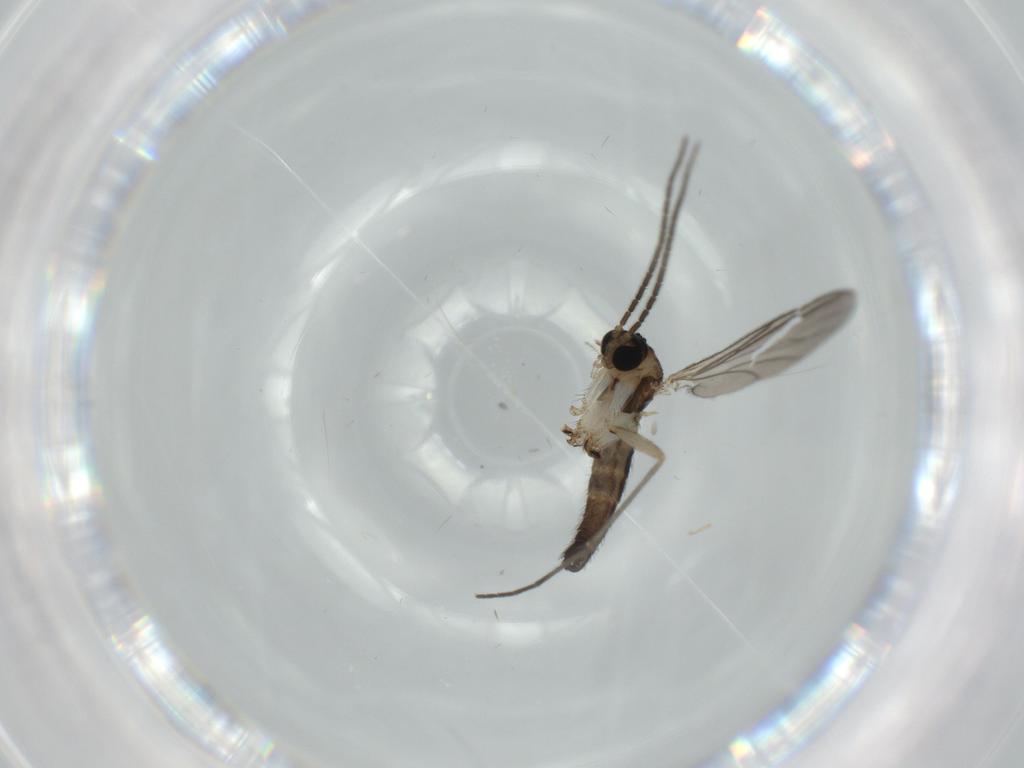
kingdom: Animalia
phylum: Arthropoda
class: Insecta
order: Diptera
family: Sciaridae
